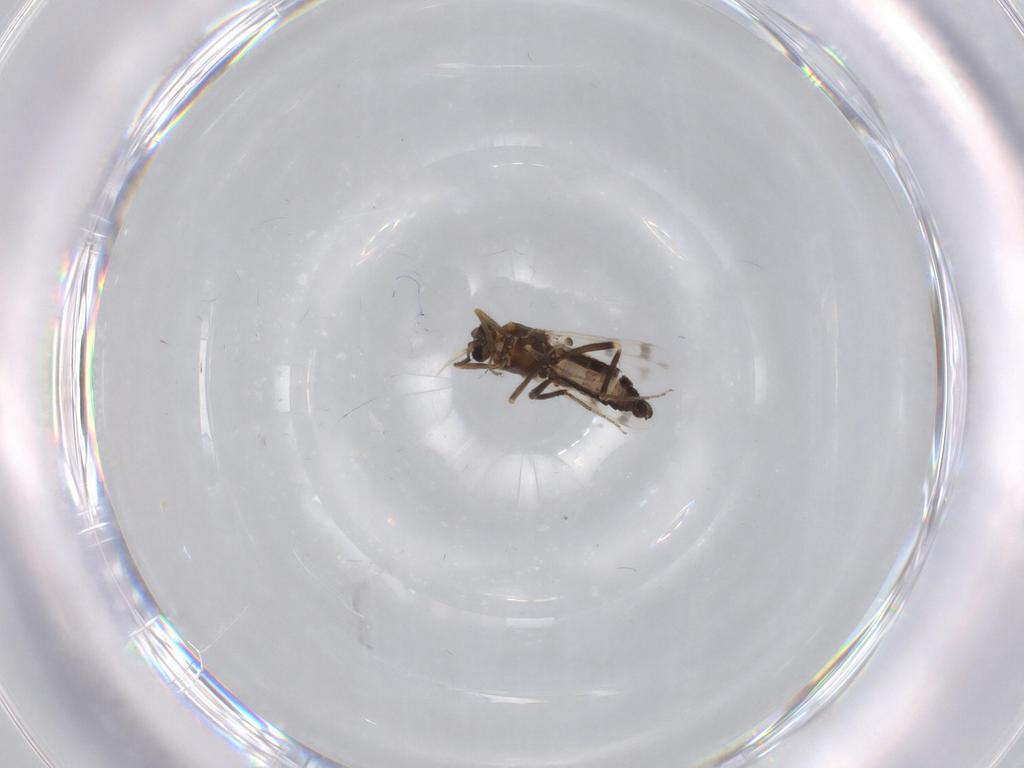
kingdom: Animalia
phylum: Arthropoda
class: Insecta
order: Diptera
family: Ceratopogonidae
